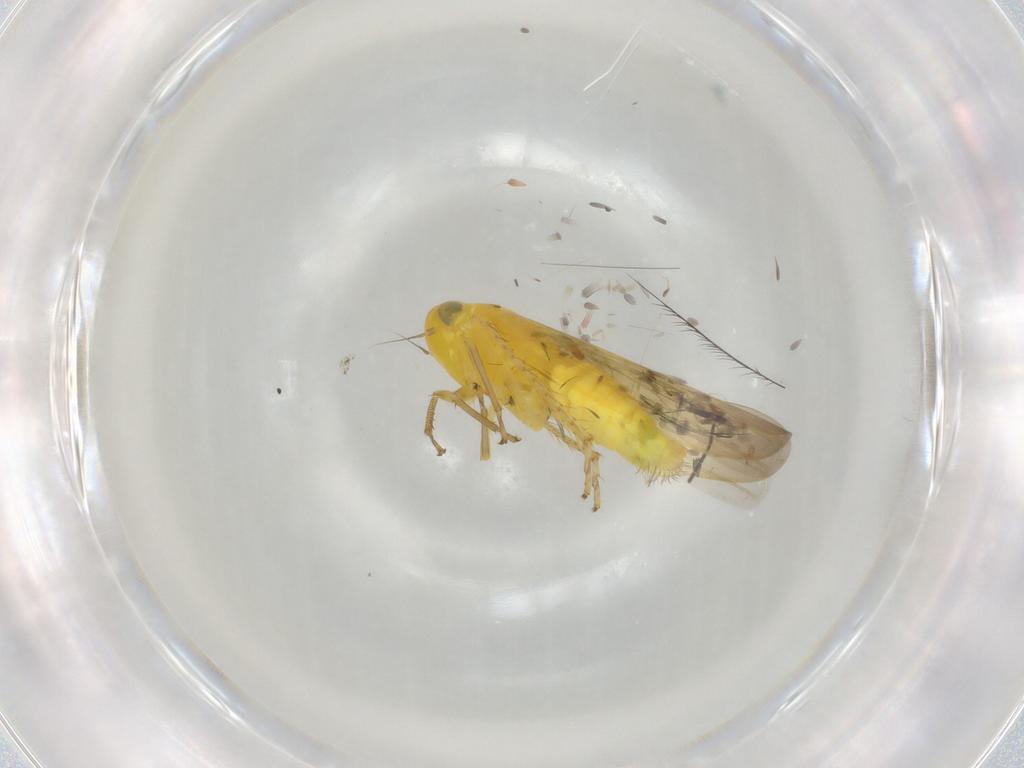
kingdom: Animalia
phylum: Arthropoda
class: Insecta
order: Hemiptera
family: Cicadellidae
